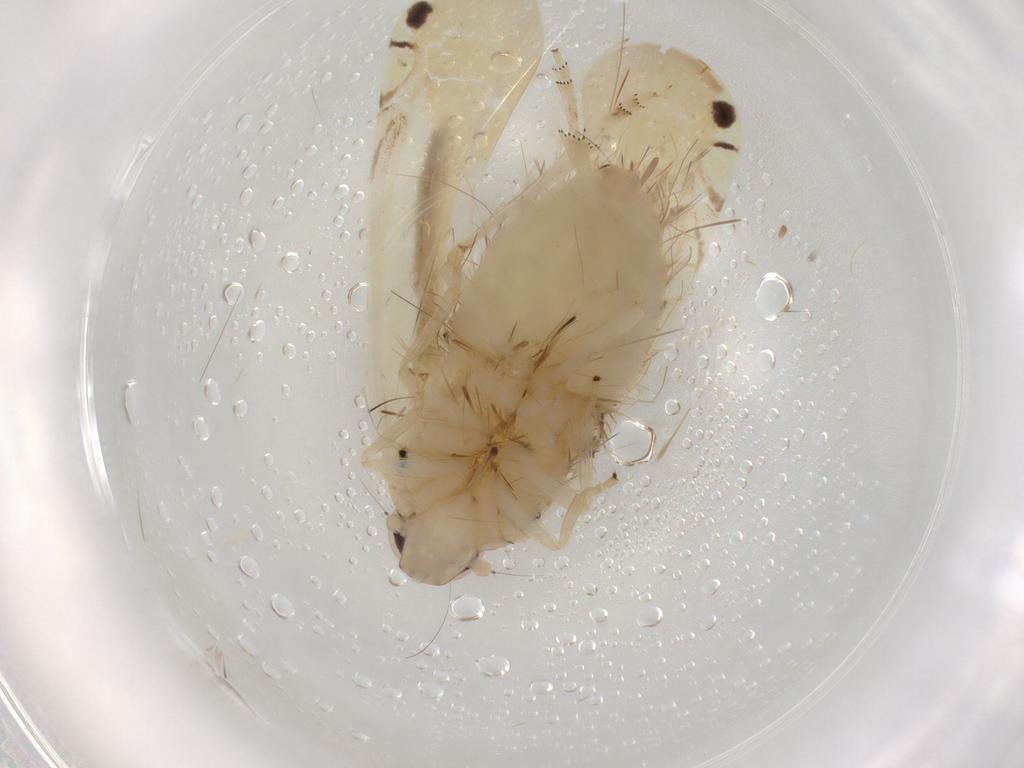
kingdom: Animalia
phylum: Arthropoda
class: Insecta
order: Hemiptera
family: Achilidae
